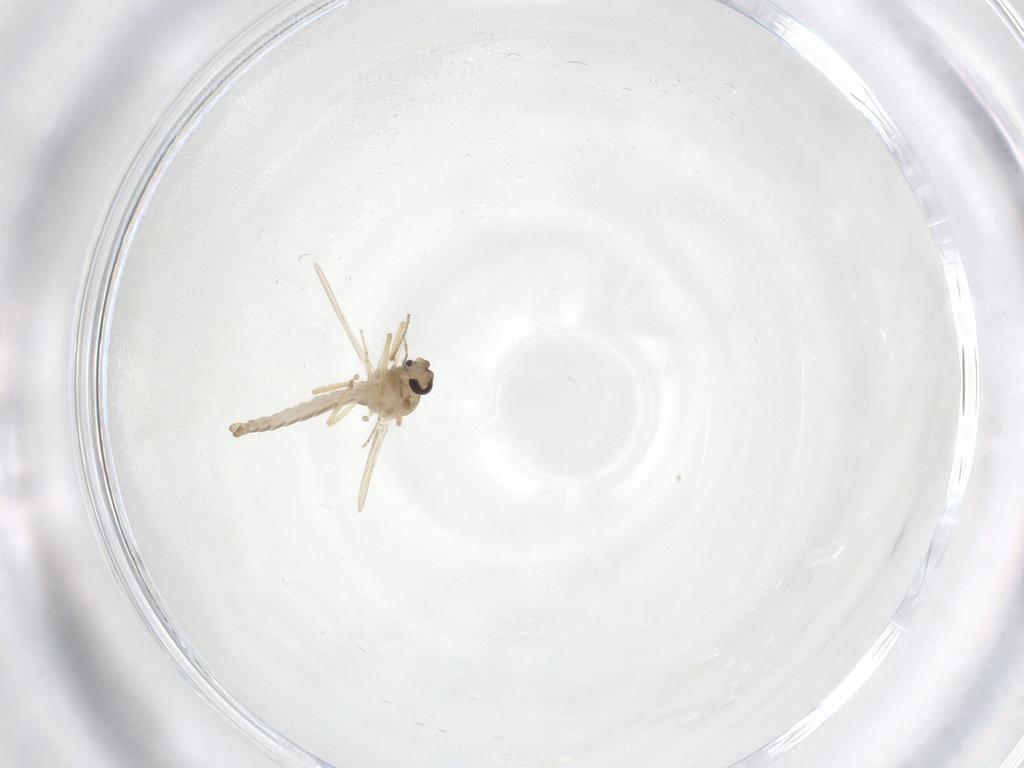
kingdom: Animalia
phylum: Arthropoda
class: Insecta
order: Diptera
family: Ceratopogonidae
